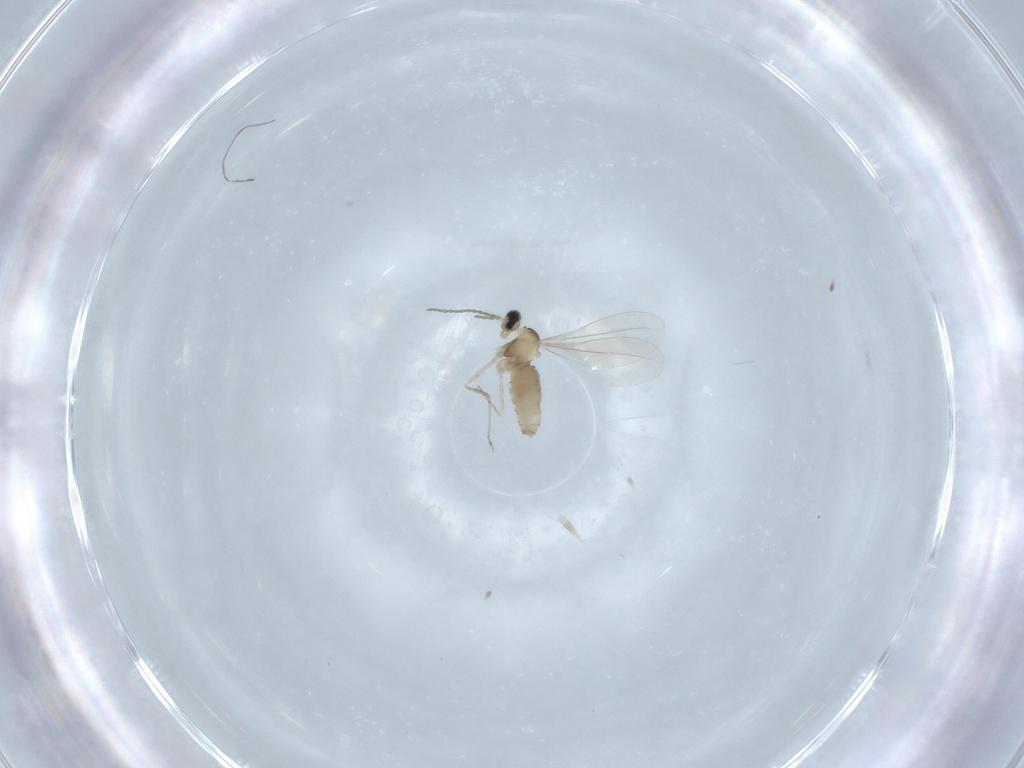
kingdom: Animalia
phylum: Arthropoda
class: Insecta
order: Diptera
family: Cecidomyiidae
